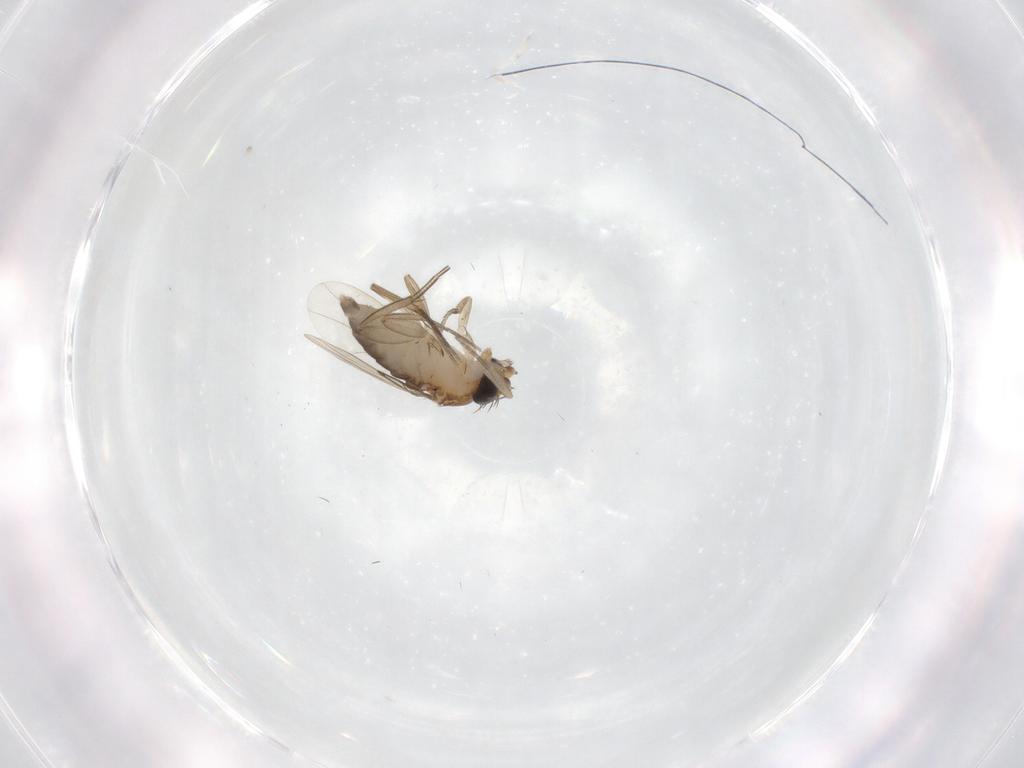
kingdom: Animalia
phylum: Arthropoda
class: Insecta
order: Diptera
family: Phoridae
